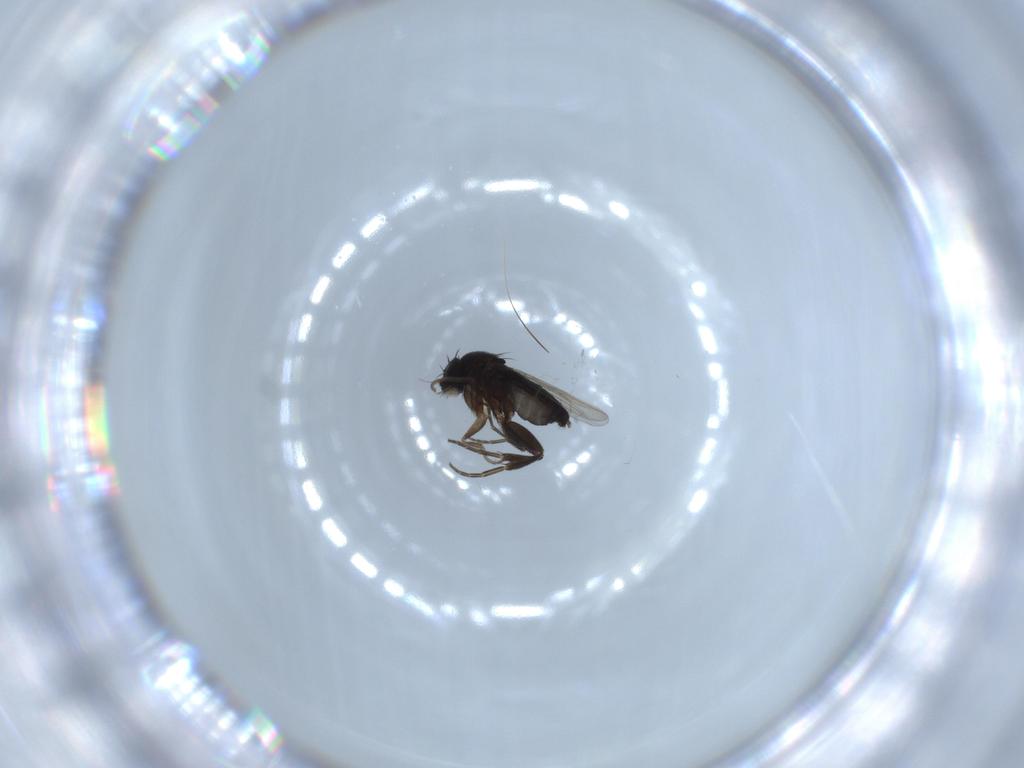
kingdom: Animalia
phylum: Arthropoda
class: Insecta
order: Diptera
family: Phoridae
